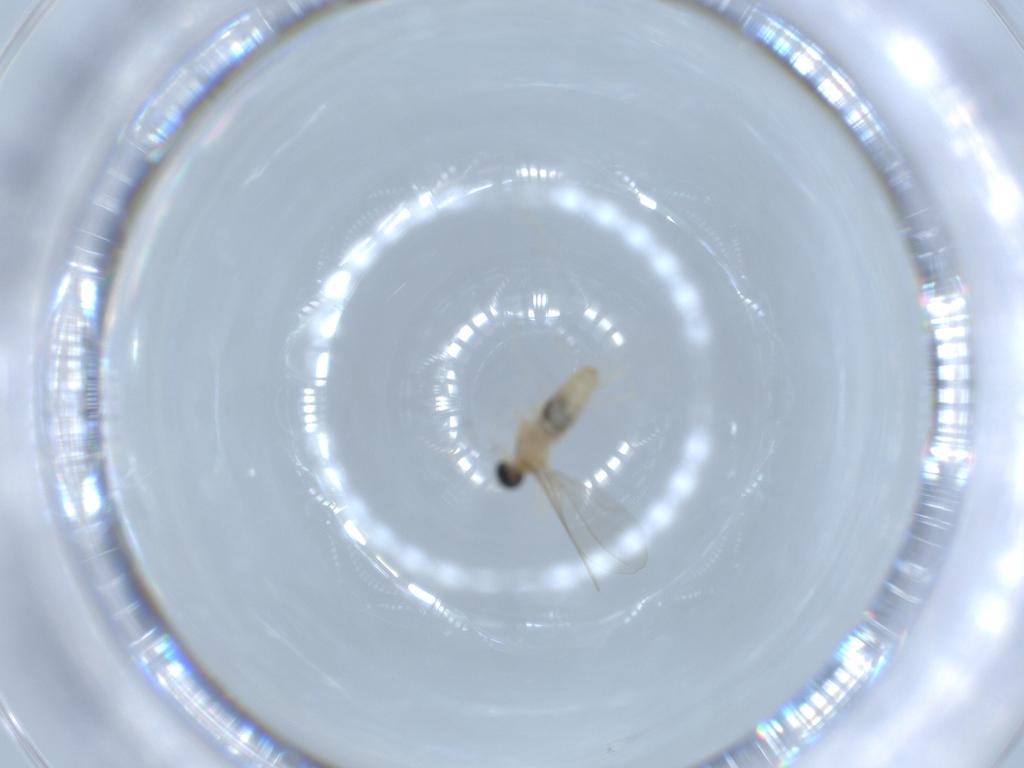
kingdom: Animalia
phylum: Arthropoda
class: Insecta
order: Diptera
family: Cecidomyiidae
